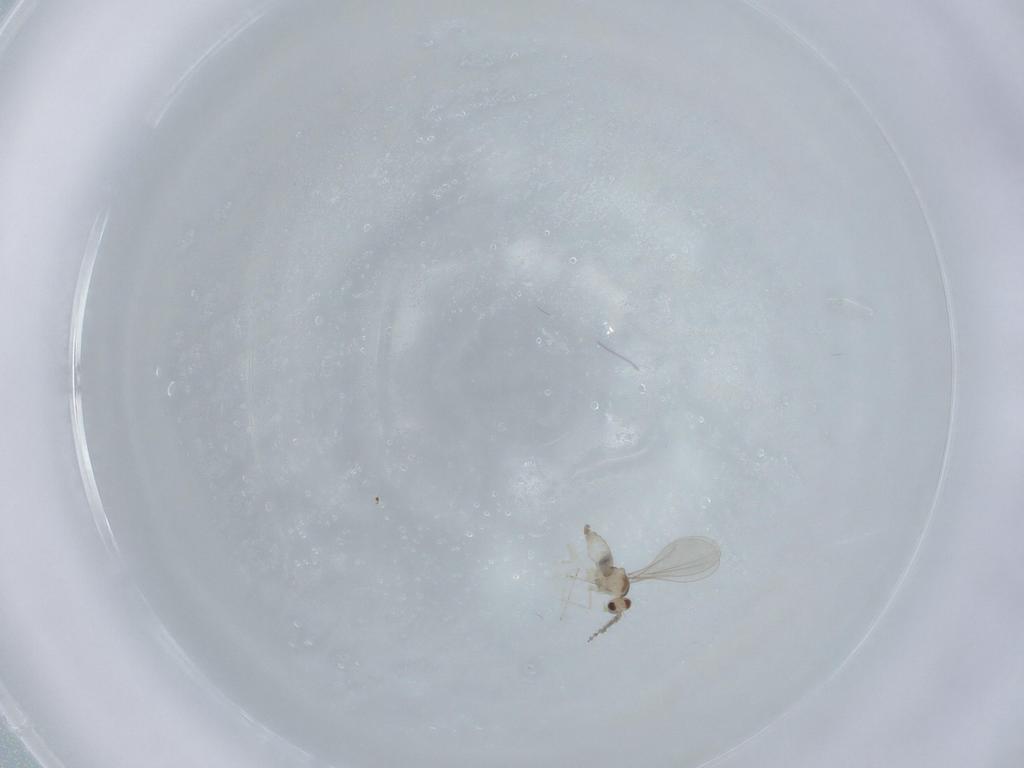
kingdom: Animalia
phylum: Arthropoda
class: Insecta
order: Diptera
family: Cecidomyiidae
